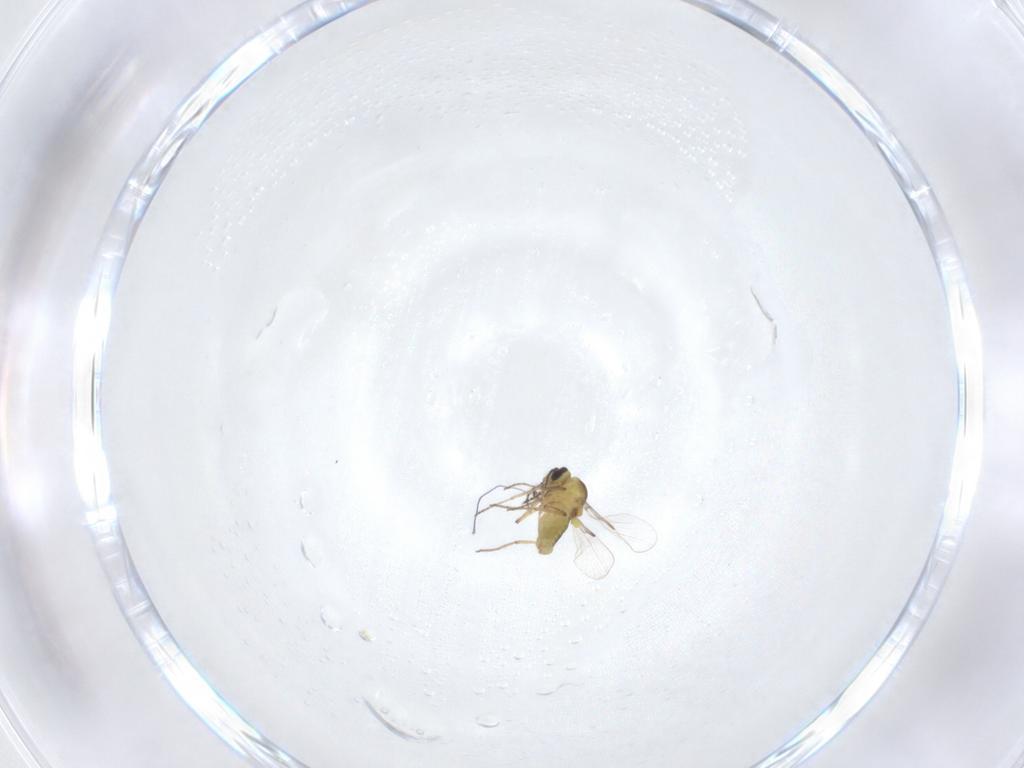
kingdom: Animalia
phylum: Arthropoda
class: Insecta
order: Diptera
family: Ceratopogonidae
